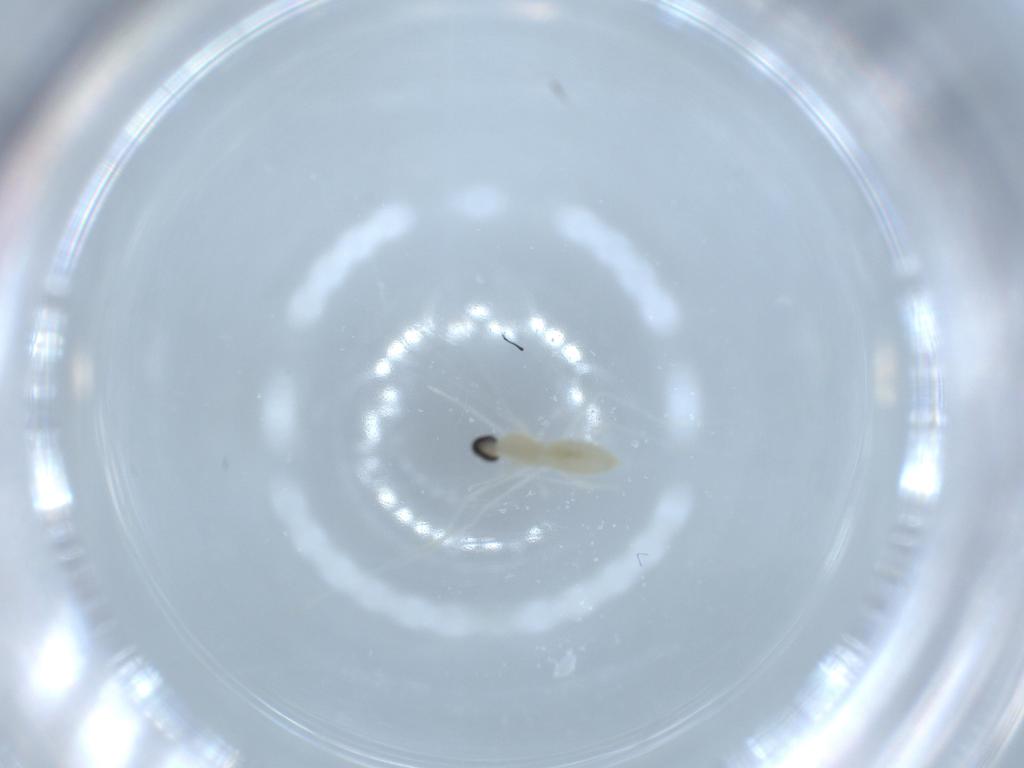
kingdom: Animalia
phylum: Arthropoda
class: Insecta
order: Diptera
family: Cecidomyiidae
